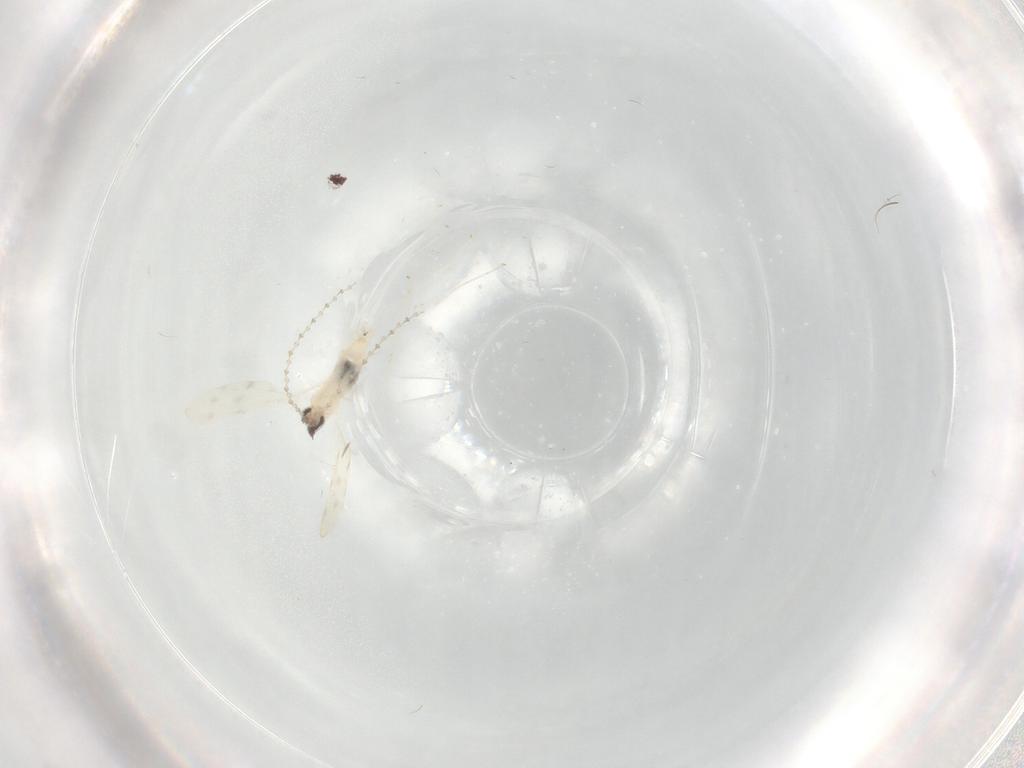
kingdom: Animalia
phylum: Arthropoda
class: Insecta
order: Diptera
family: Cecidomyiidae
